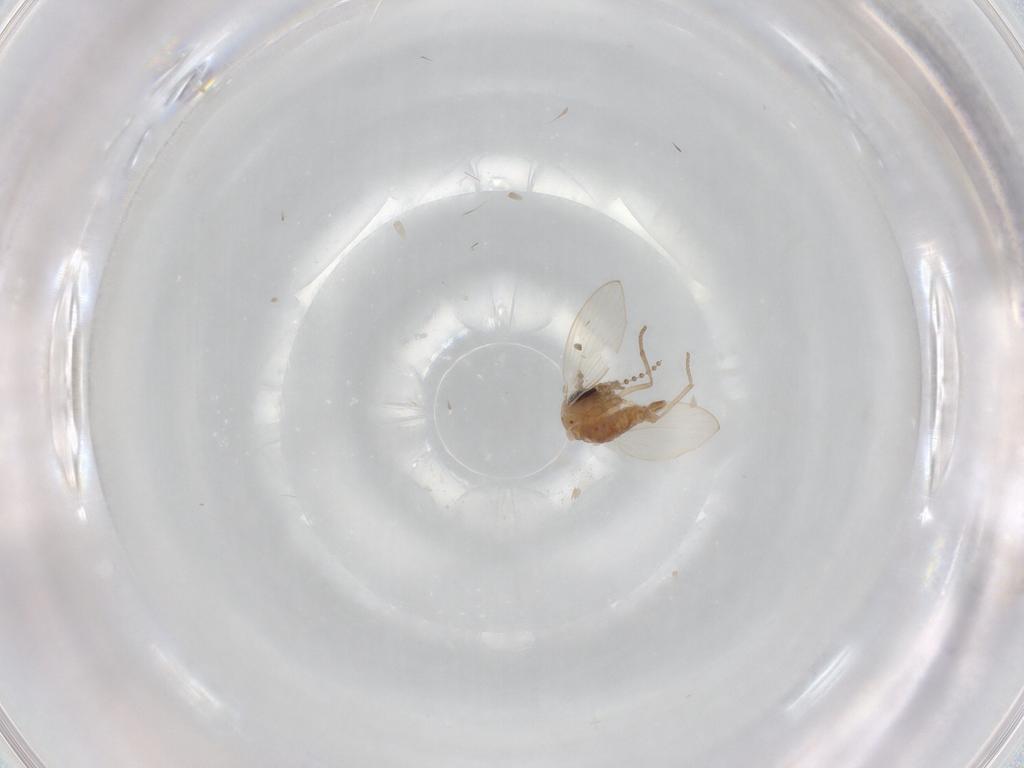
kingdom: Animalia
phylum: Arthropoda
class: Insecta
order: Diptera
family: Psychodidae
